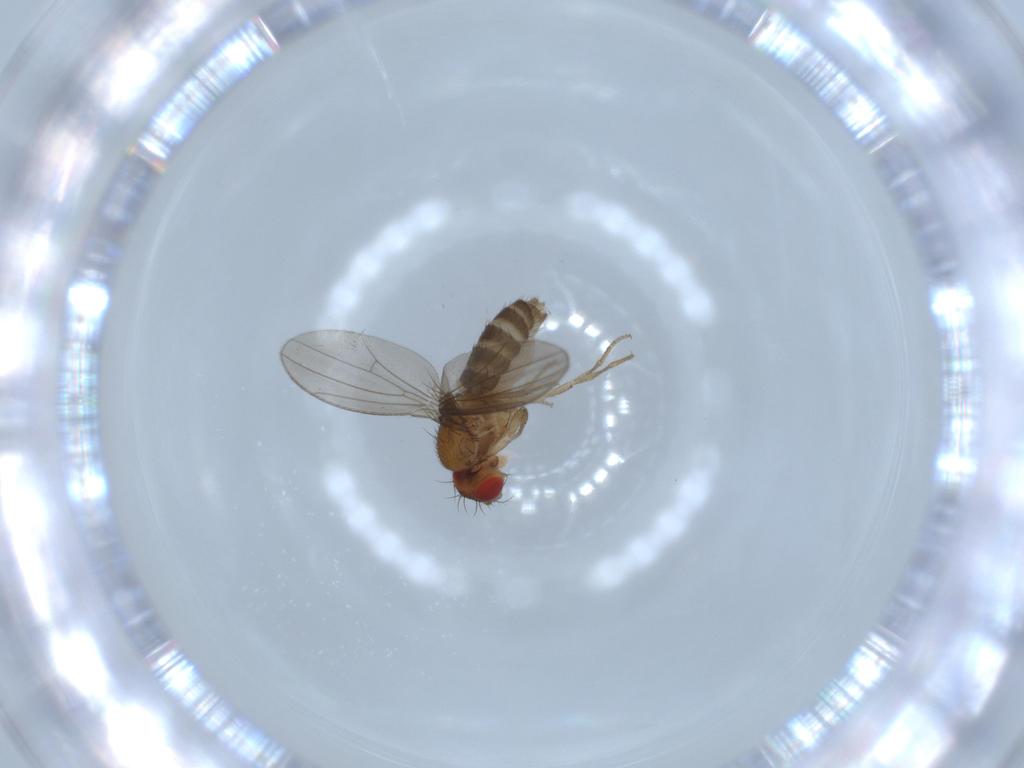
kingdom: Animalia
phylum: Arthropoda
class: Insecta
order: Diptera
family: Drosophilidae
